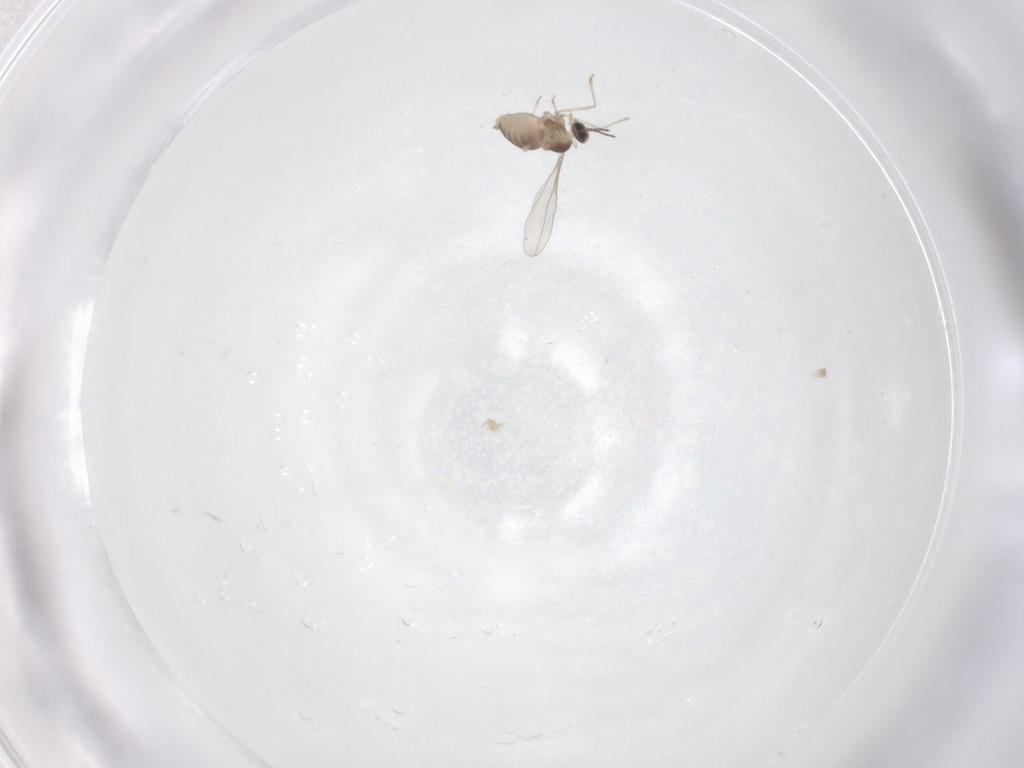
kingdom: Animalia
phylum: Arthropoda
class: Insecta
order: Diptera
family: Cecidomyiidae
